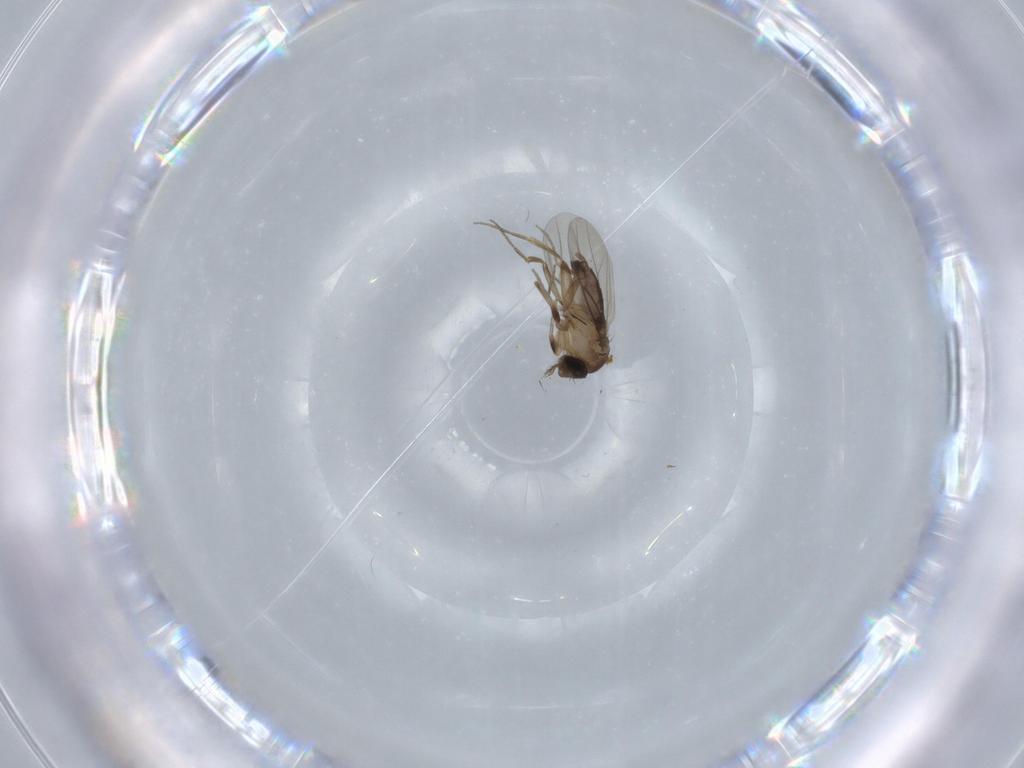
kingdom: Animalia
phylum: Arthropoda
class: Insecta
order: Diptera
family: Phoridae
